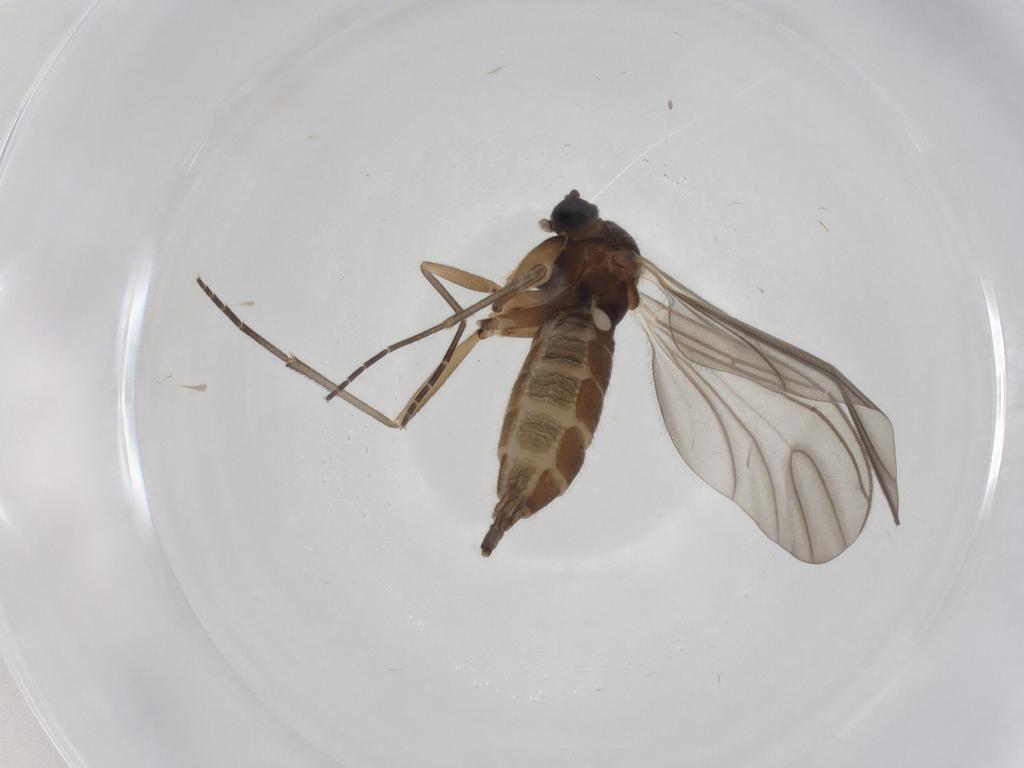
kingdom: Animalia
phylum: Arthropoda
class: Insecta
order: Diptera
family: Sciaridae
